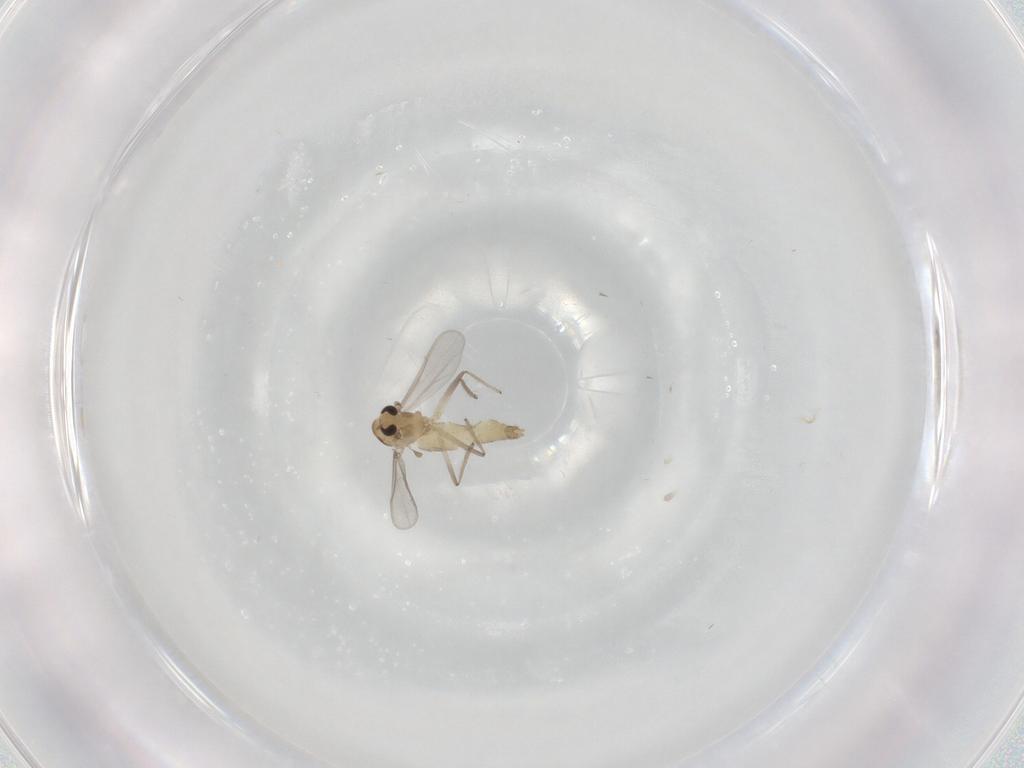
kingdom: Animalia
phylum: Arthropoda
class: Insecta
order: Diptera
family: Chironomidae
